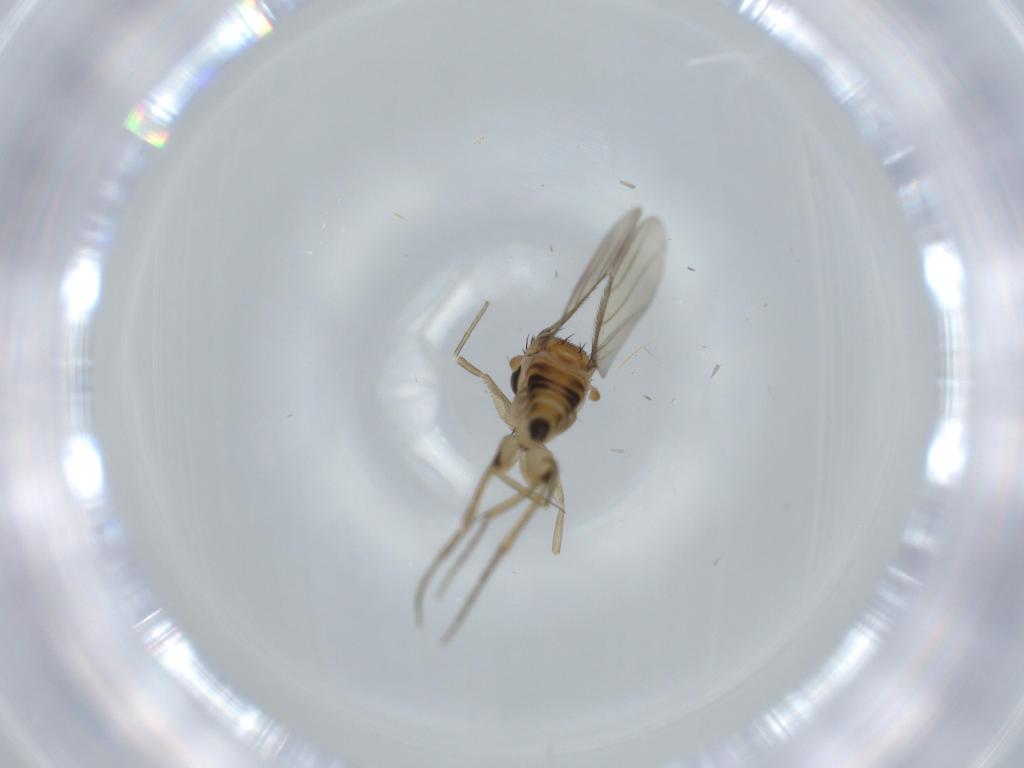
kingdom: Animalia
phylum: Arthropoda
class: Insecta
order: Diptera
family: Phoridae
